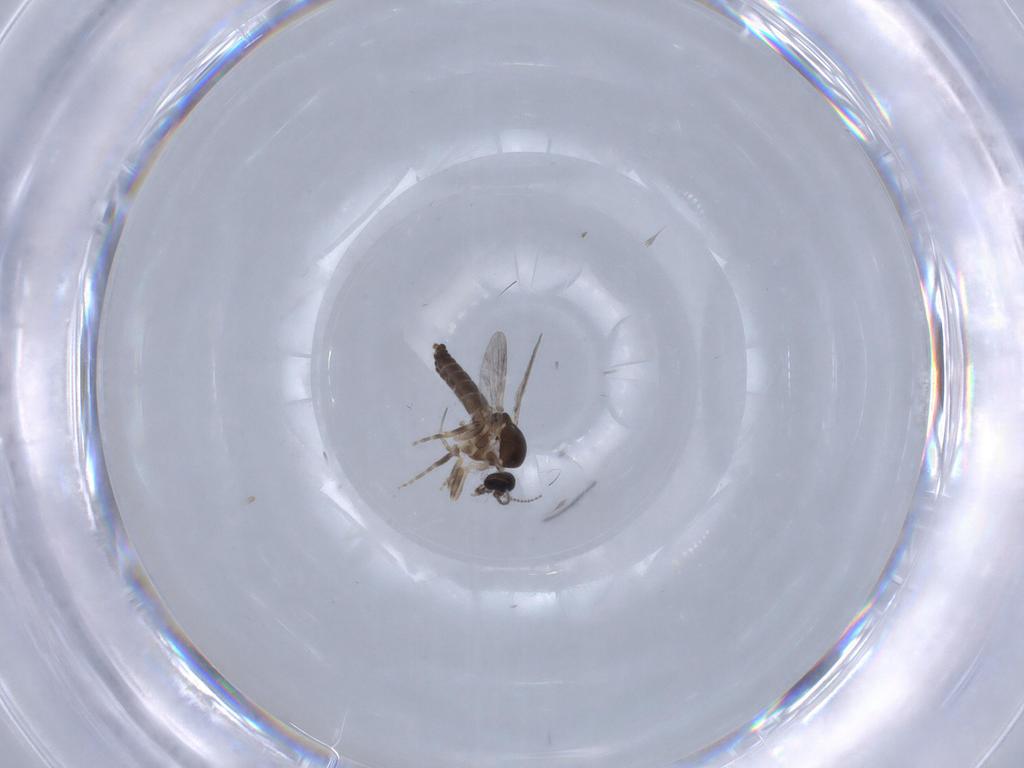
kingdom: Animalia
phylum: Arthropoda
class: Insecta
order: Diptera
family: Ceratopogonidae
